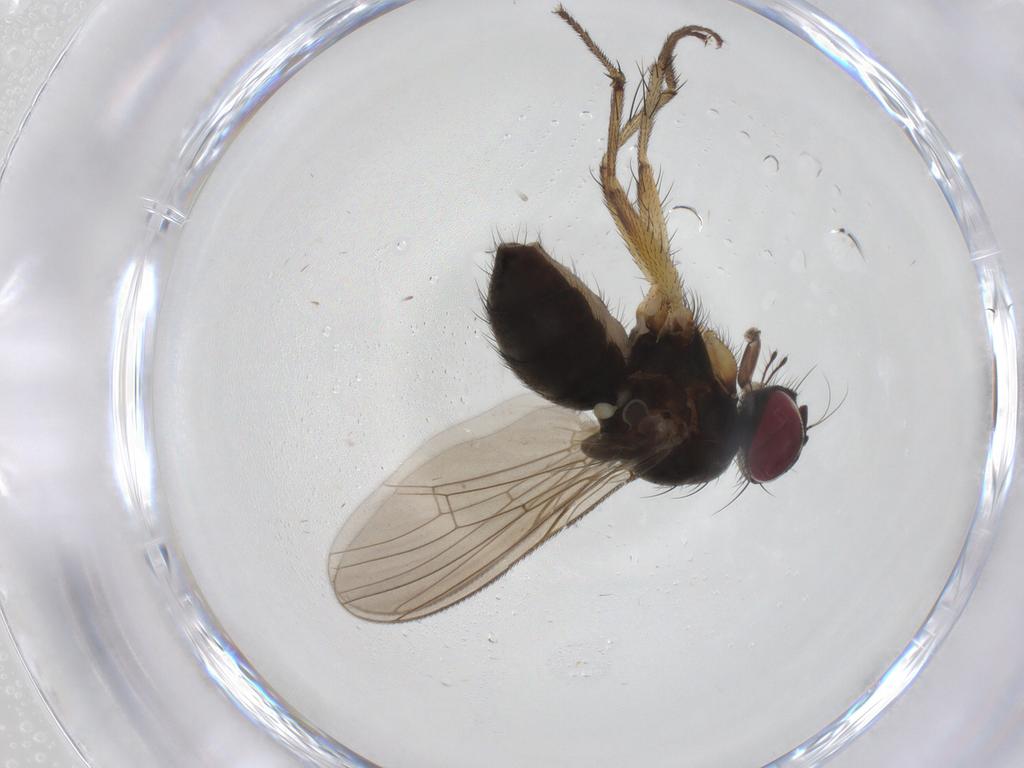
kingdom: Animalia
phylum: Arthropoda
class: Insecta
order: Diptera
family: Muscidae
